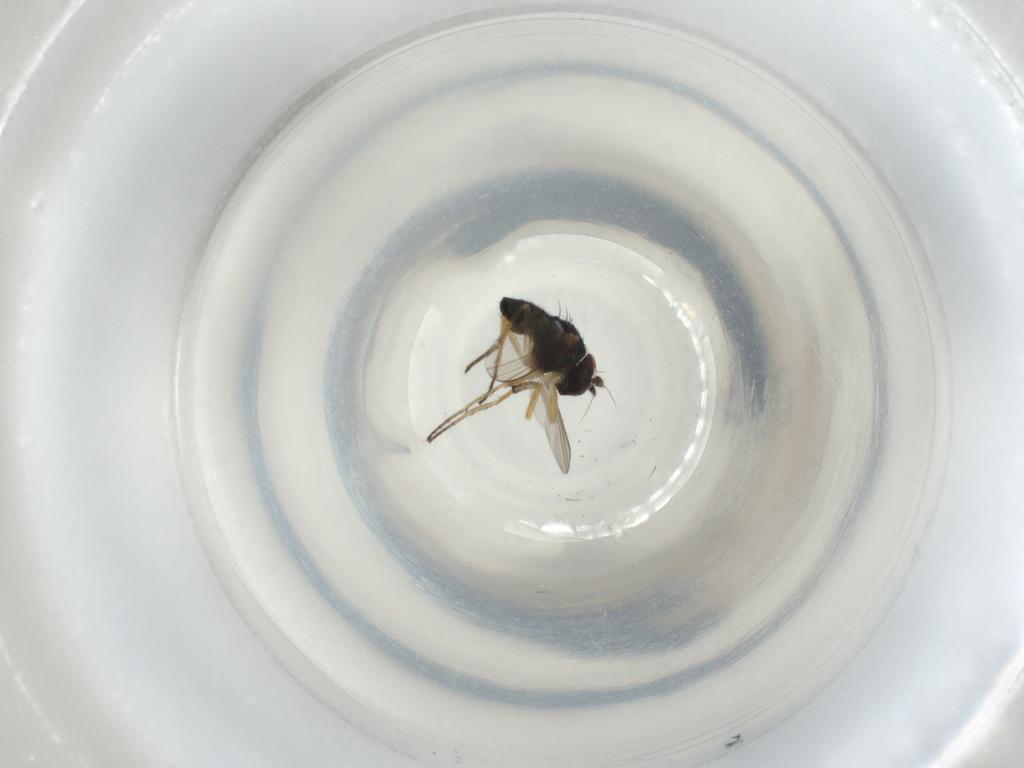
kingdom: Animalia
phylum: Arthropoda
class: Insecta
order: Diptera
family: Dolichopodidae
